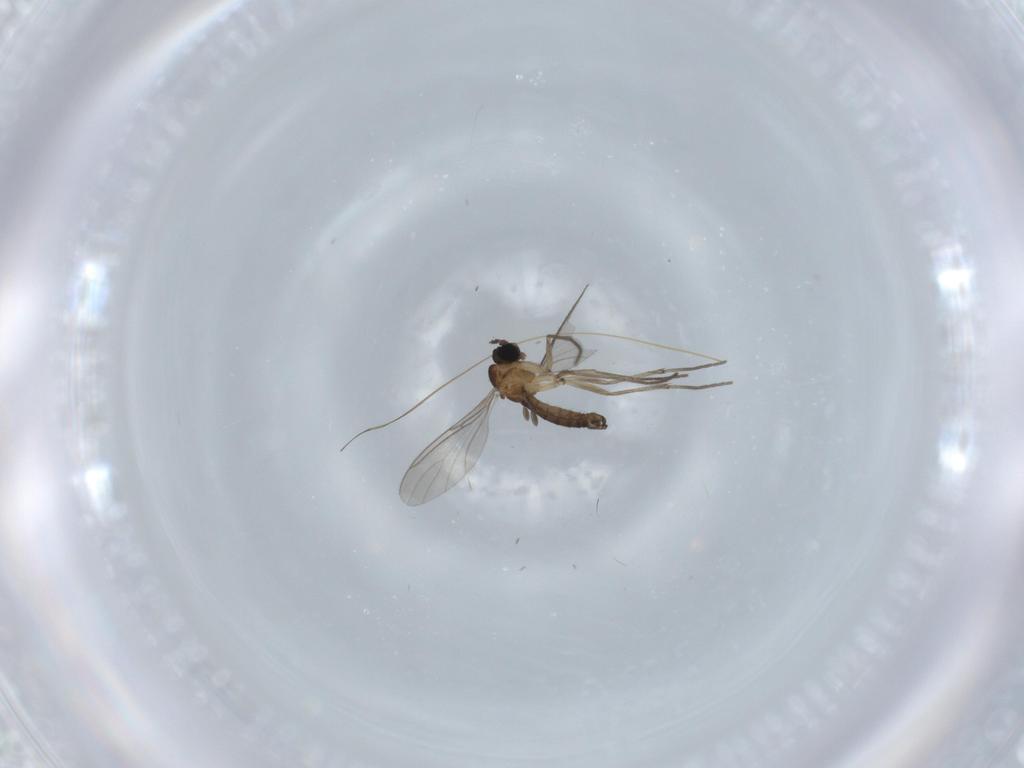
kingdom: Animalia
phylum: Arthropoda
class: Insecta
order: Diptera
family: Sciaridae
